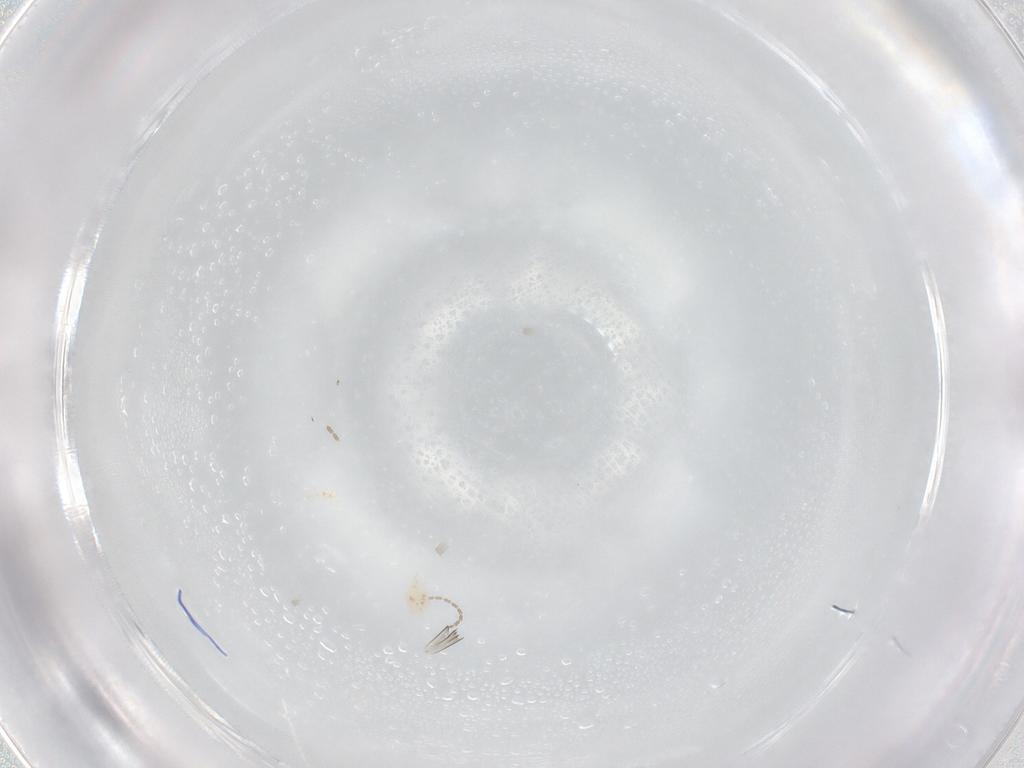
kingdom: Animalia
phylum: Arthropoda
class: Insecta
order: Diptera
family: Chironomidae
